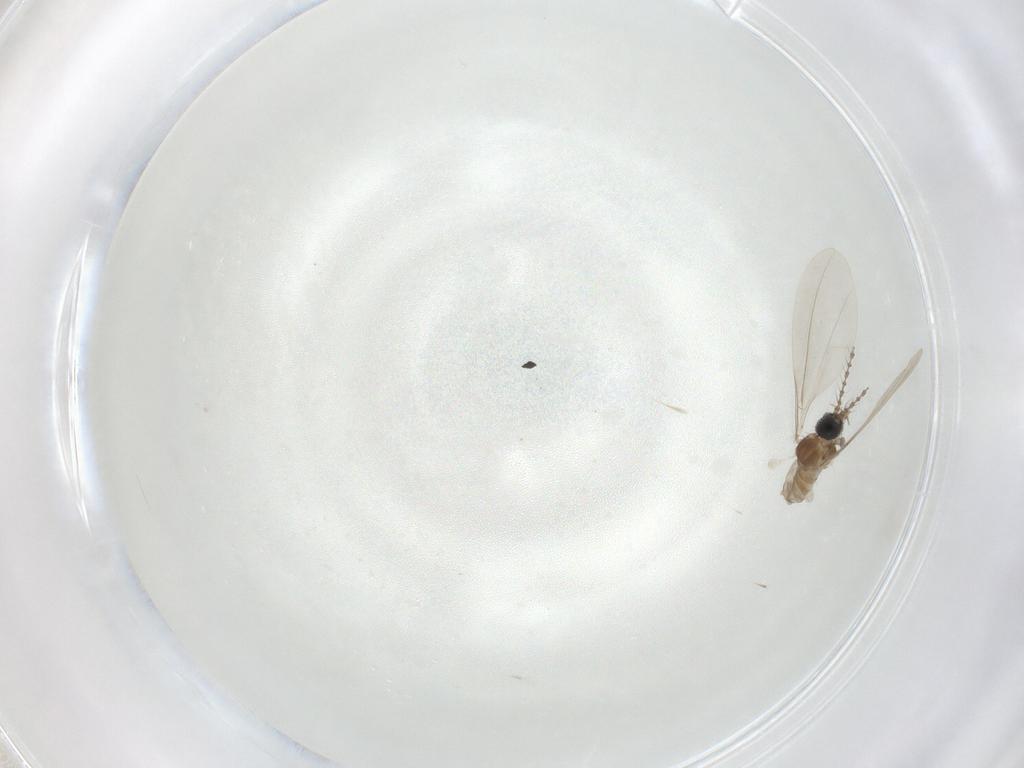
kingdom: Animalia
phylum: Arthropoda
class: Insecta
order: Diptera
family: Cecidomyiidae
